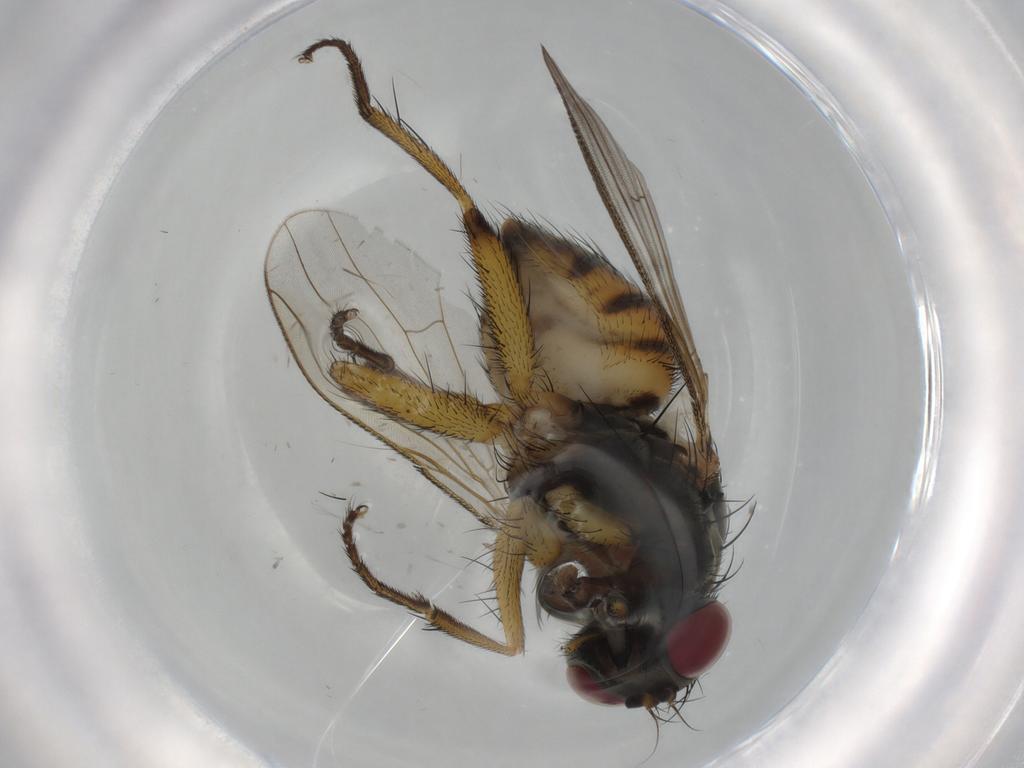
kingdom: Animalia
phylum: Arthropoda
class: Insecta
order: Diptera
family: Muscidae
